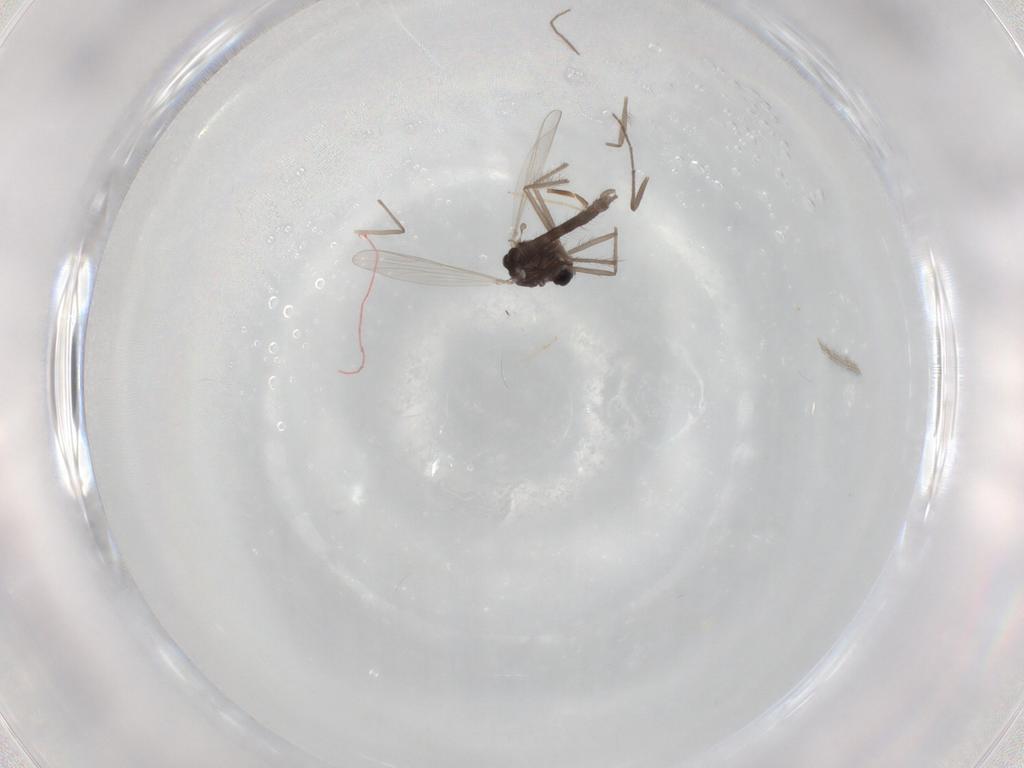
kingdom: Animalia
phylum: Arthropoda
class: Insecta
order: Diptera
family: Chironomidae
